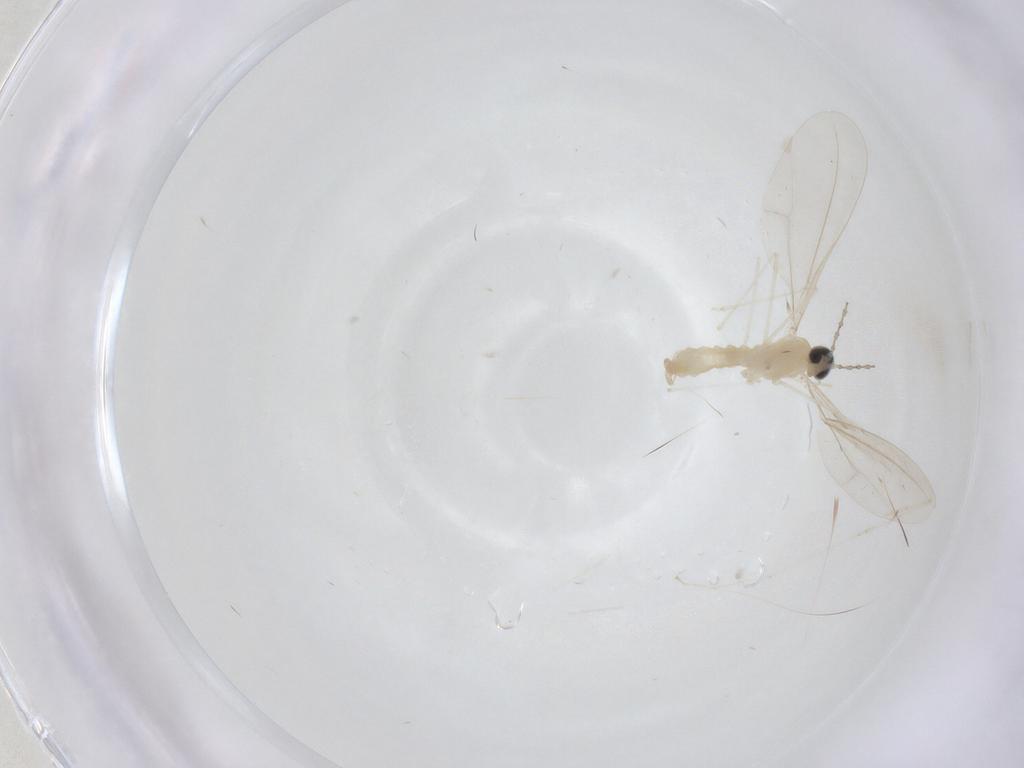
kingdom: Animalia
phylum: Arthropoda
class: Insecta
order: Diptera
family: Cecidomyiidae
